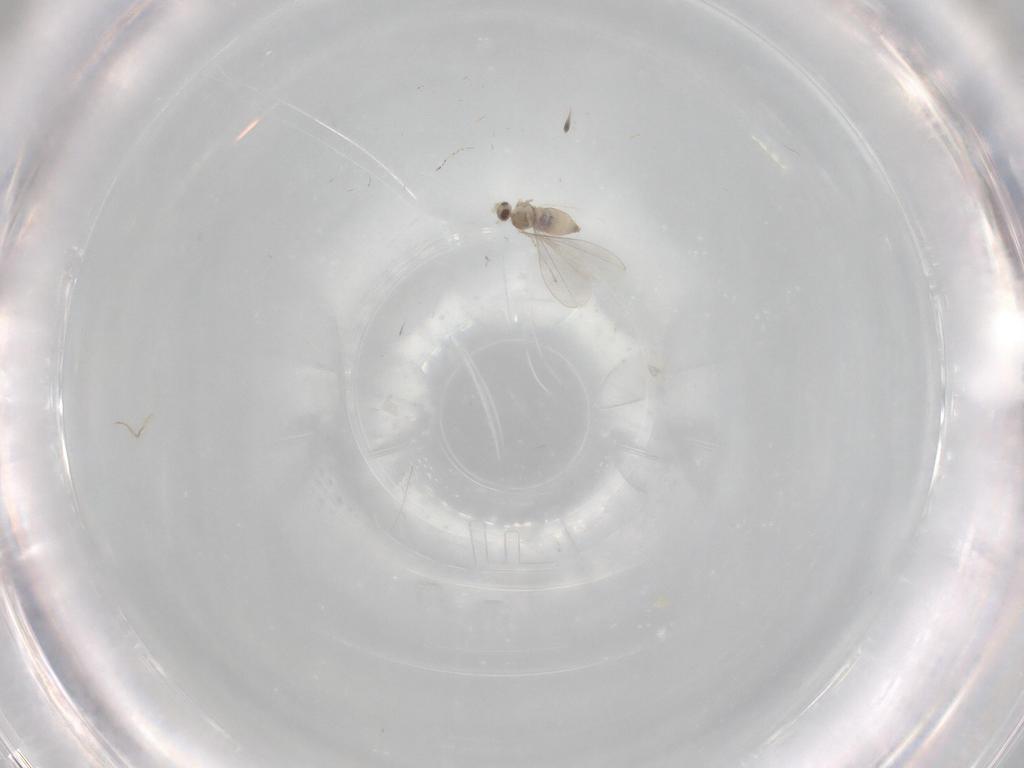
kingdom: Animalia
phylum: Arthropoda
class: Insecta
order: Diptera
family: Cecidomyiidae
